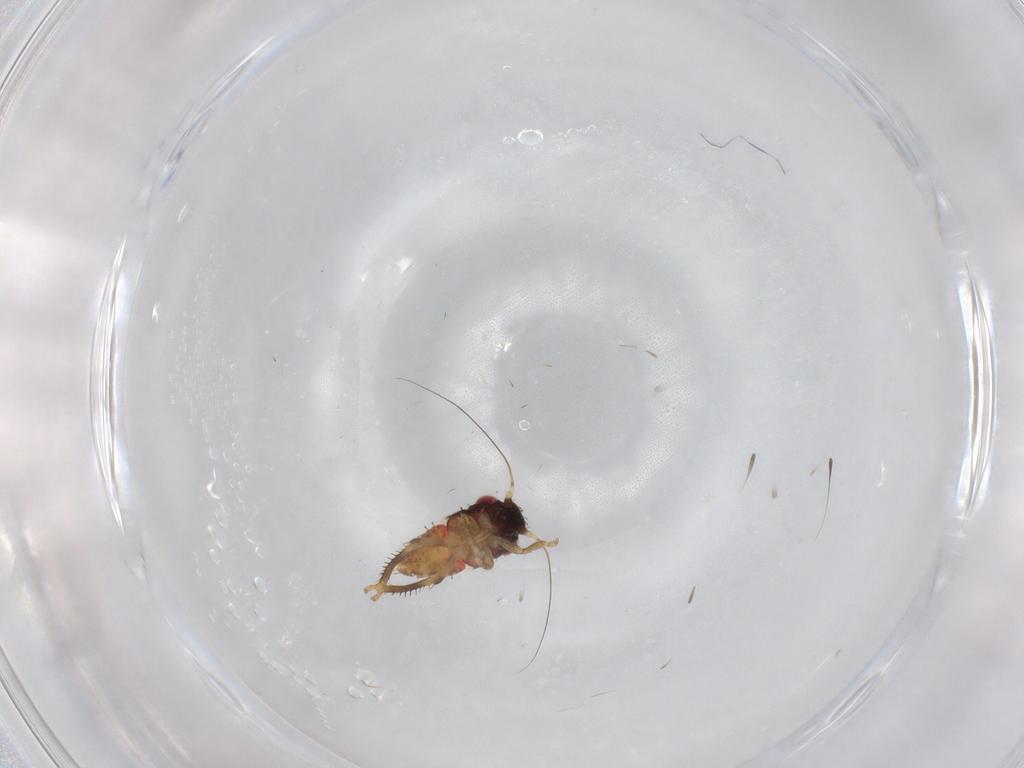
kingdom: Animalia
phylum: Arthropoda
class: Insecta
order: Hemiptera
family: Cicadellidae
